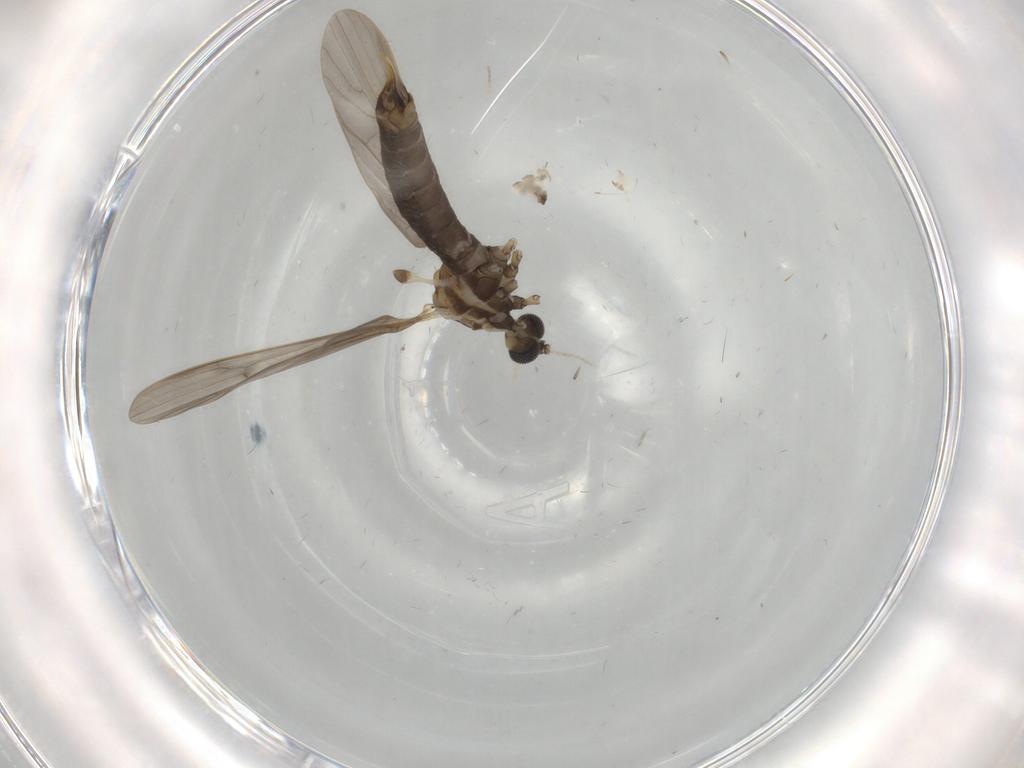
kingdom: Animalia
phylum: Arthropoda
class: Insecta
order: Diptera
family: Limoniidae
